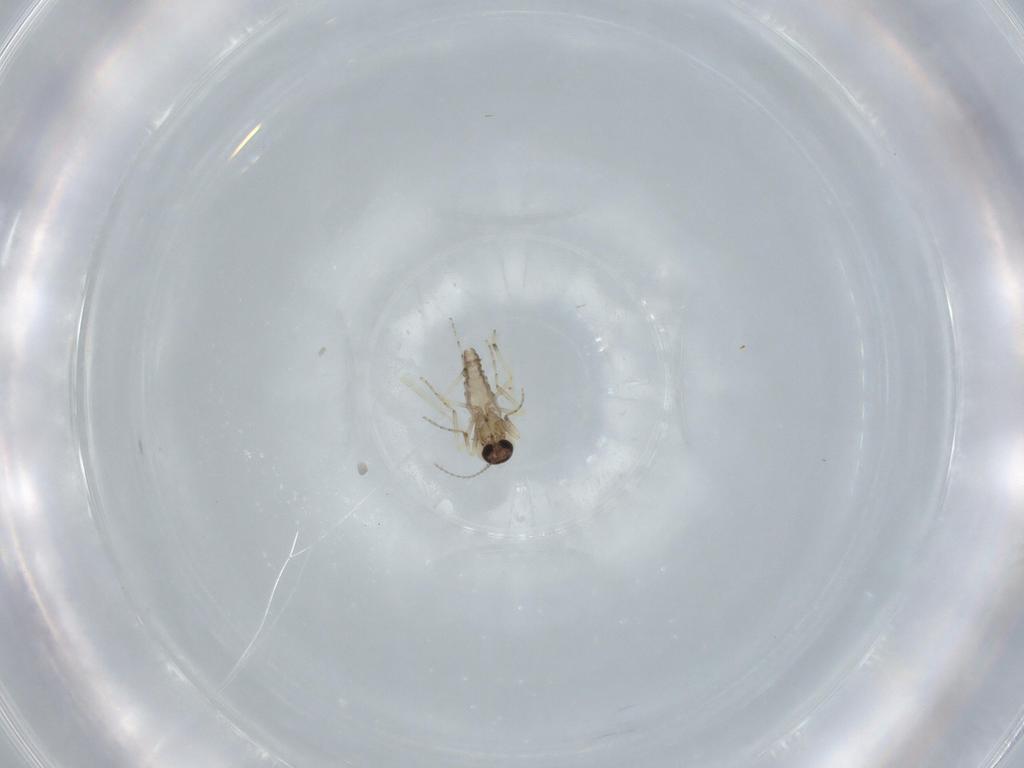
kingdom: Animalia
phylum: Arthropoda
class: Insecta
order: Diptera
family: Ceratopogonidae
